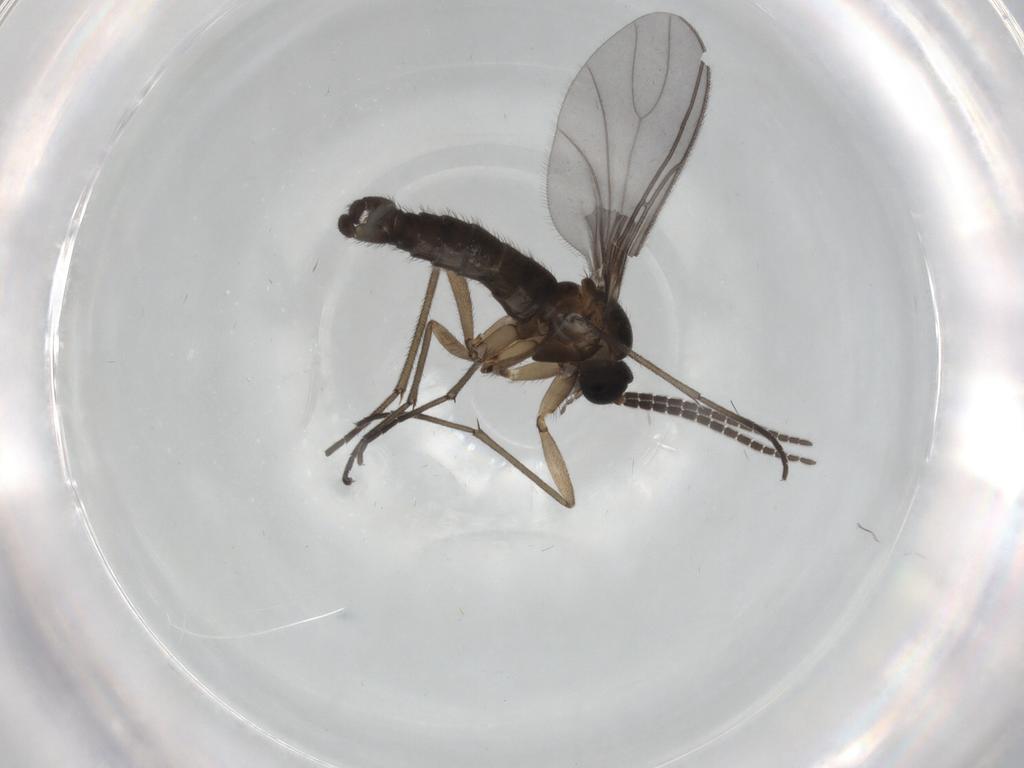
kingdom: Animalia
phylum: Arthropoda
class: Insecta
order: Diptera
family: Sciaridae
